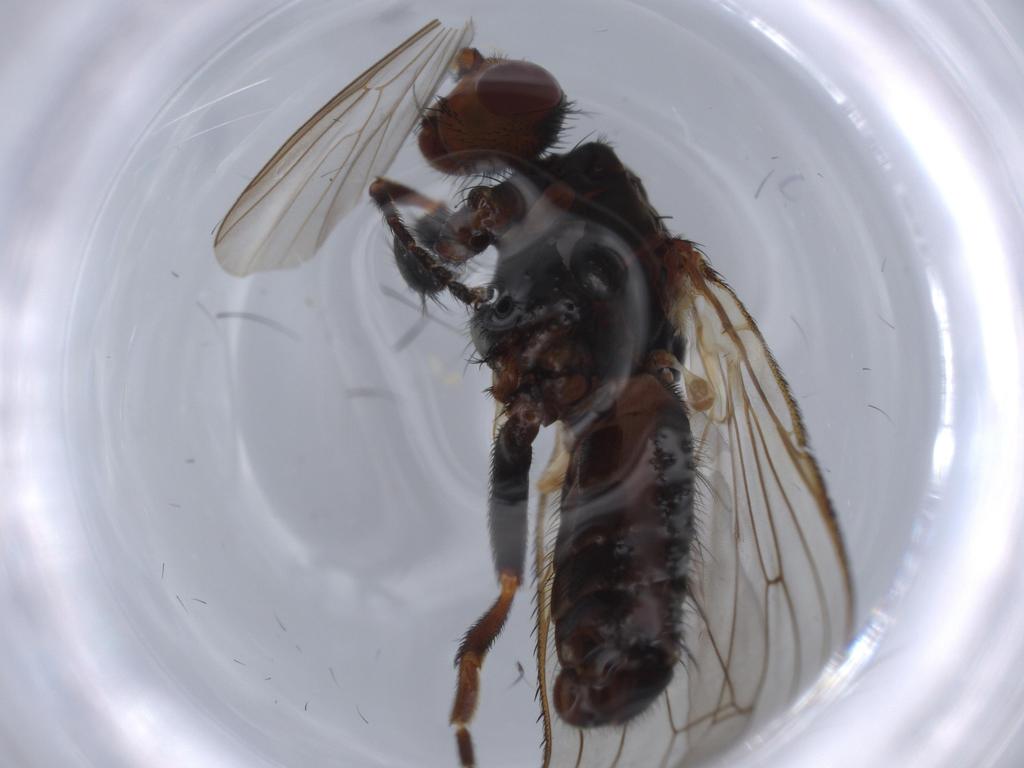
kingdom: Animalia
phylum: Arthropoda
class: Insecta
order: Diptera
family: Heleomyzidae
